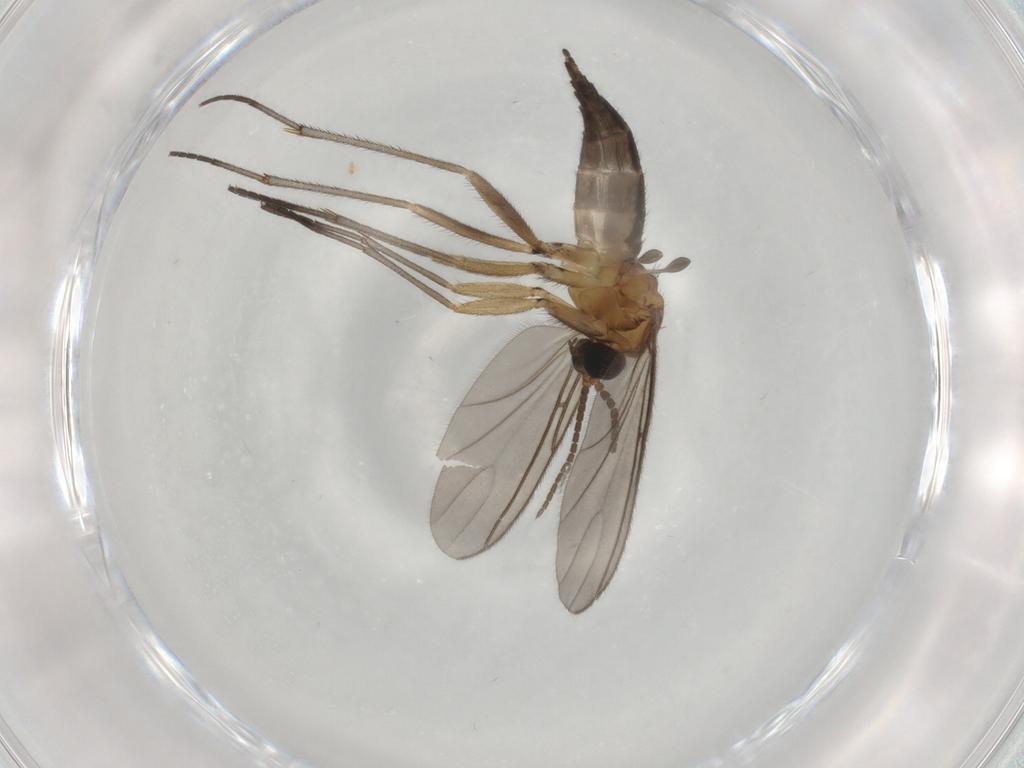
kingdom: Animalia
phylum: Arthropoda
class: Insecta
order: Diptera
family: Sciaridae
